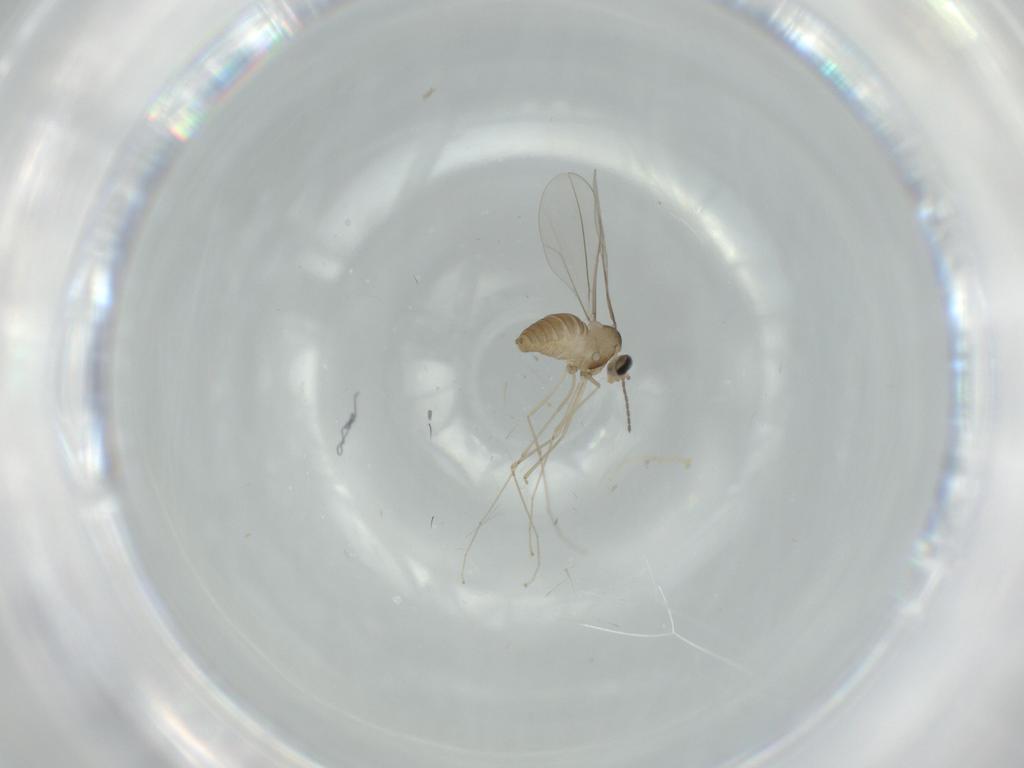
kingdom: Animalia
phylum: Arthropoda
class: Insecta
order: Diptera
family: Cecidomyiidae
